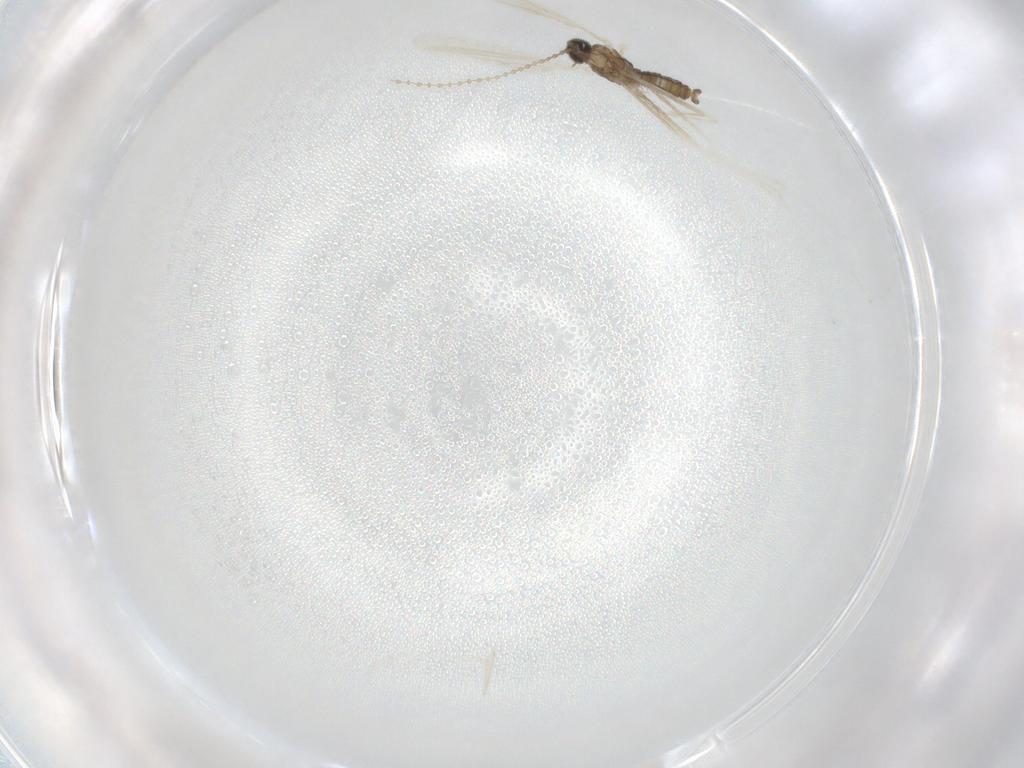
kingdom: Animalia
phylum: Arthropoda
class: Insecta
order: Diptera
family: Cecidomyiidae
